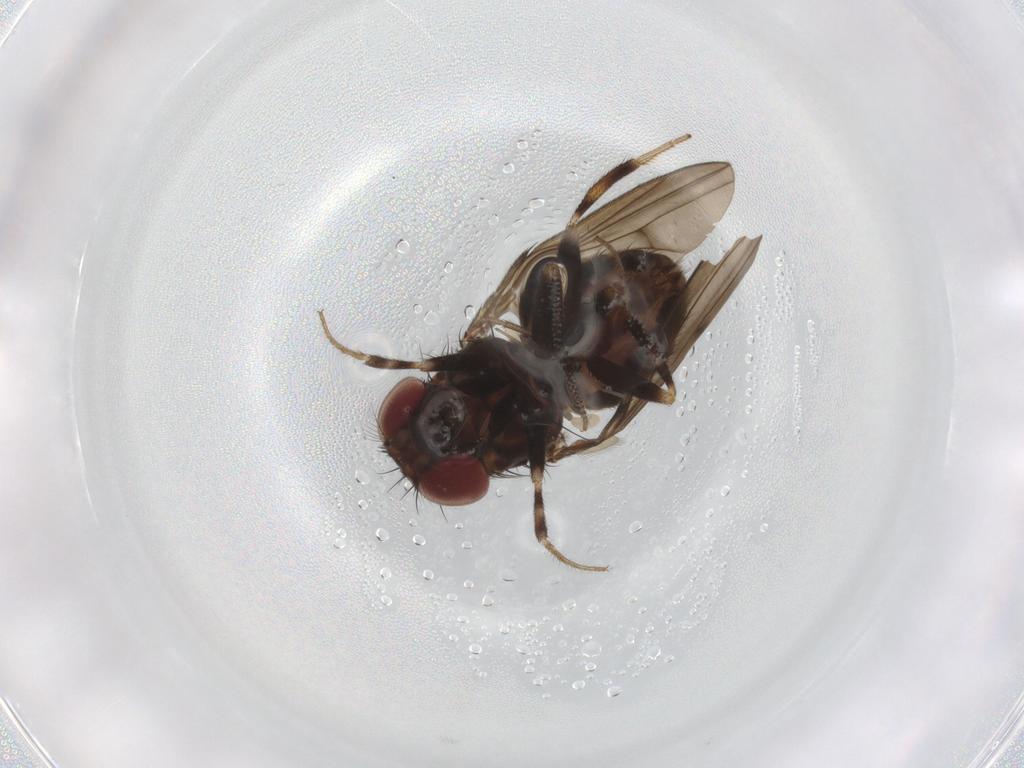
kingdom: Animalia
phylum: Arthropoda
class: Insecta
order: Diptera
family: Drosophilidae
